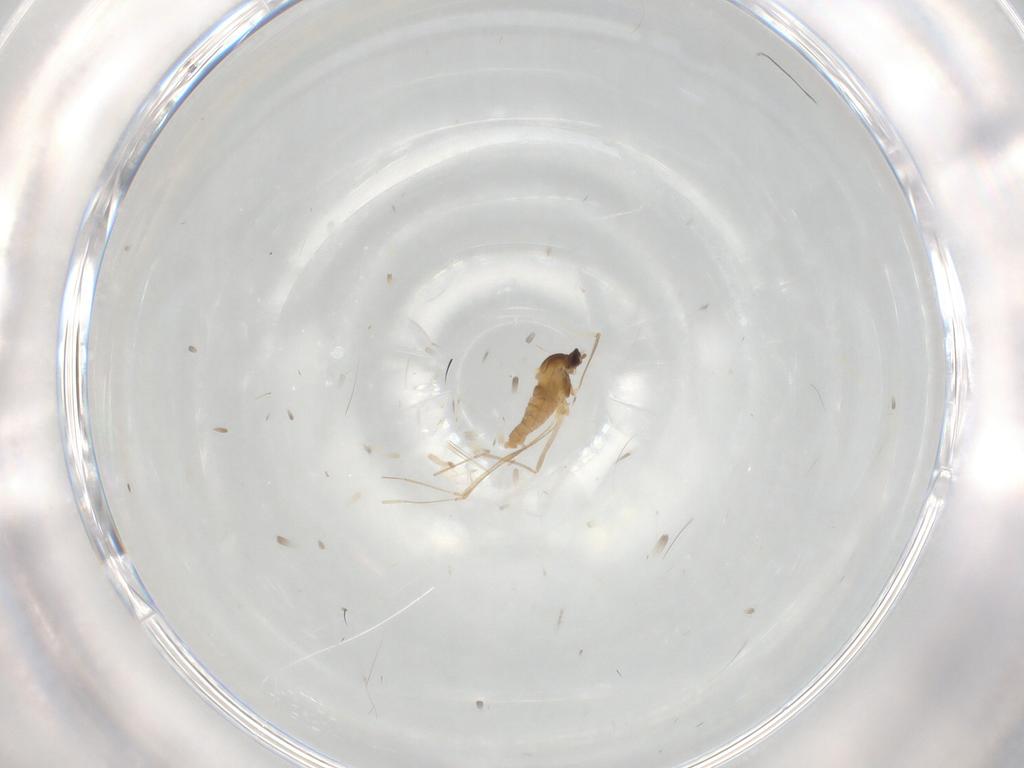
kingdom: Animalia
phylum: Arthropoda
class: Insecta
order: Diptera
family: Cecidomyiidae
